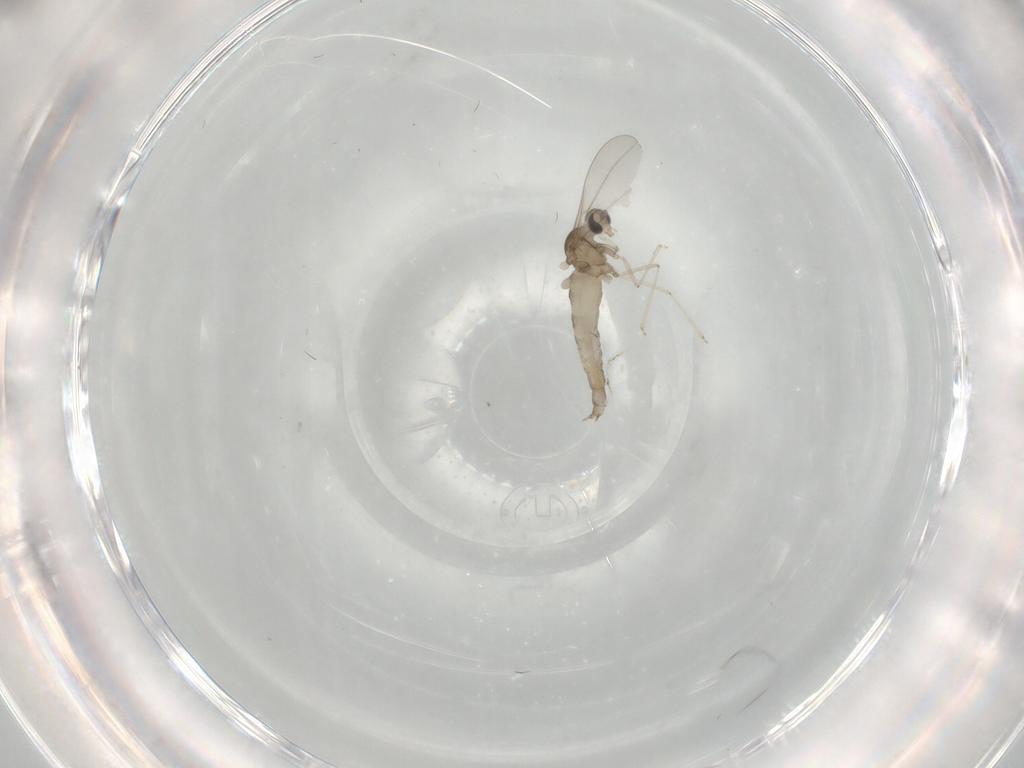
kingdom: Animalia
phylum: Arthropoda
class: Insecta
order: Diptera
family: Cecidomyiidae
